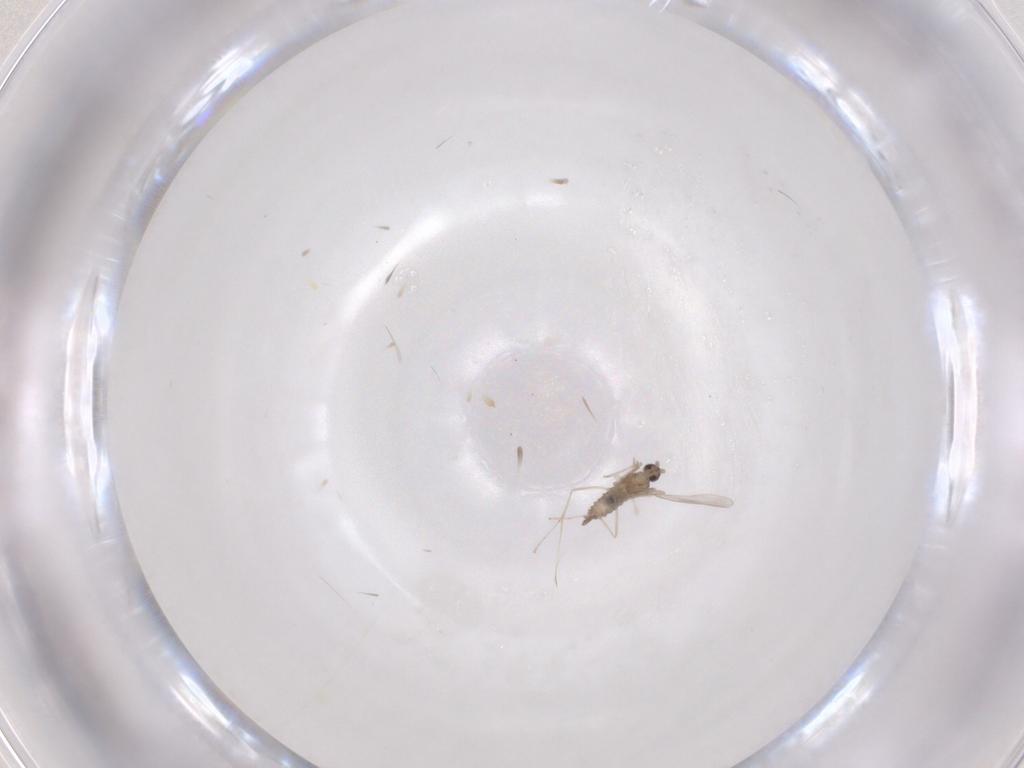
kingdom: Animalia
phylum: Arthropoda
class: Insecta
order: Diptera
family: Cecidomyiidae
